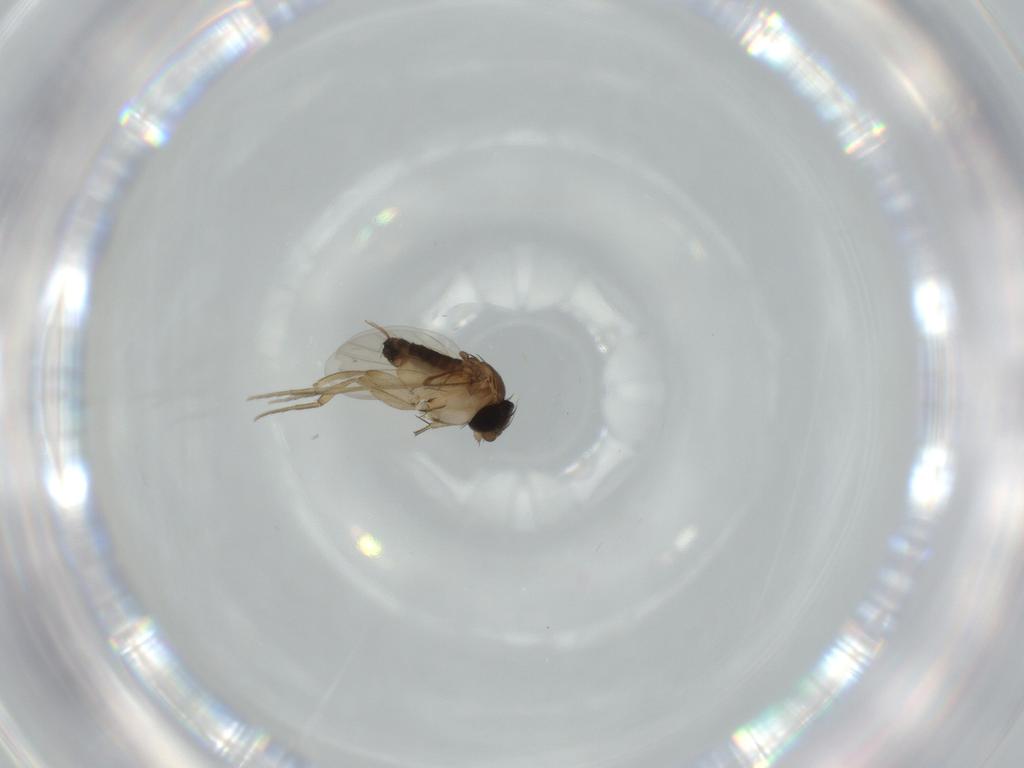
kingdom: Animalia
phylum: Arthropoda
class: Insecta
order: Diptera
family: Phoridae
